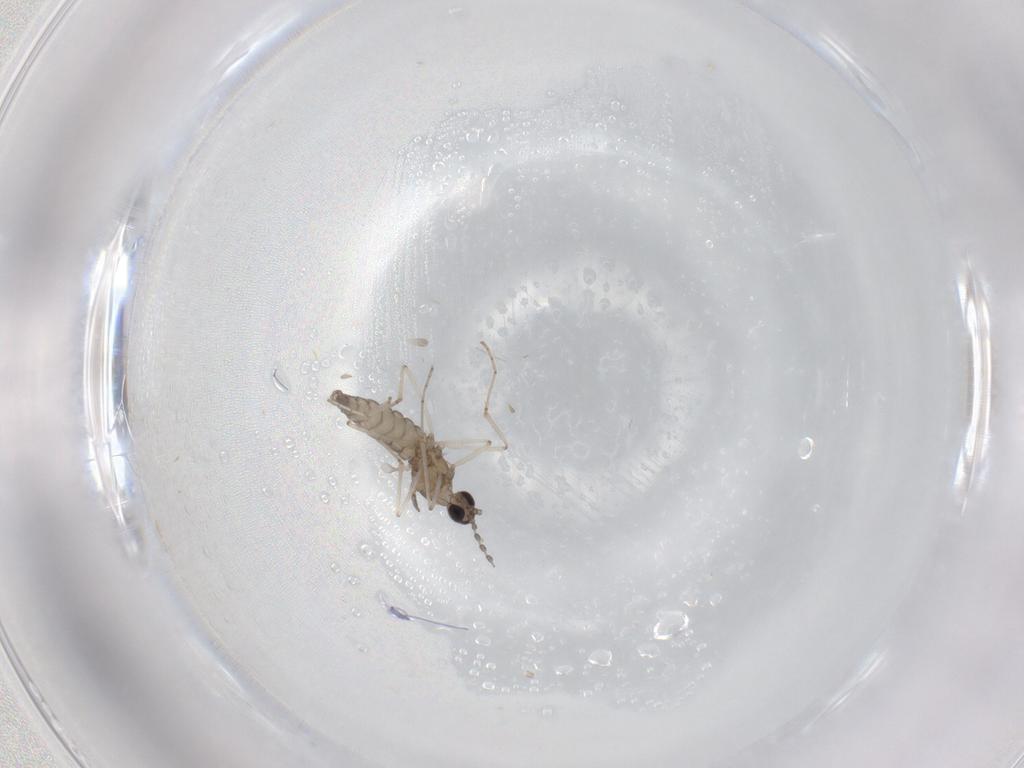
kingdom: Animalia
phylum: Arthropoda
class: Insecta
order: Diptera
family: Cecidomyiidae
